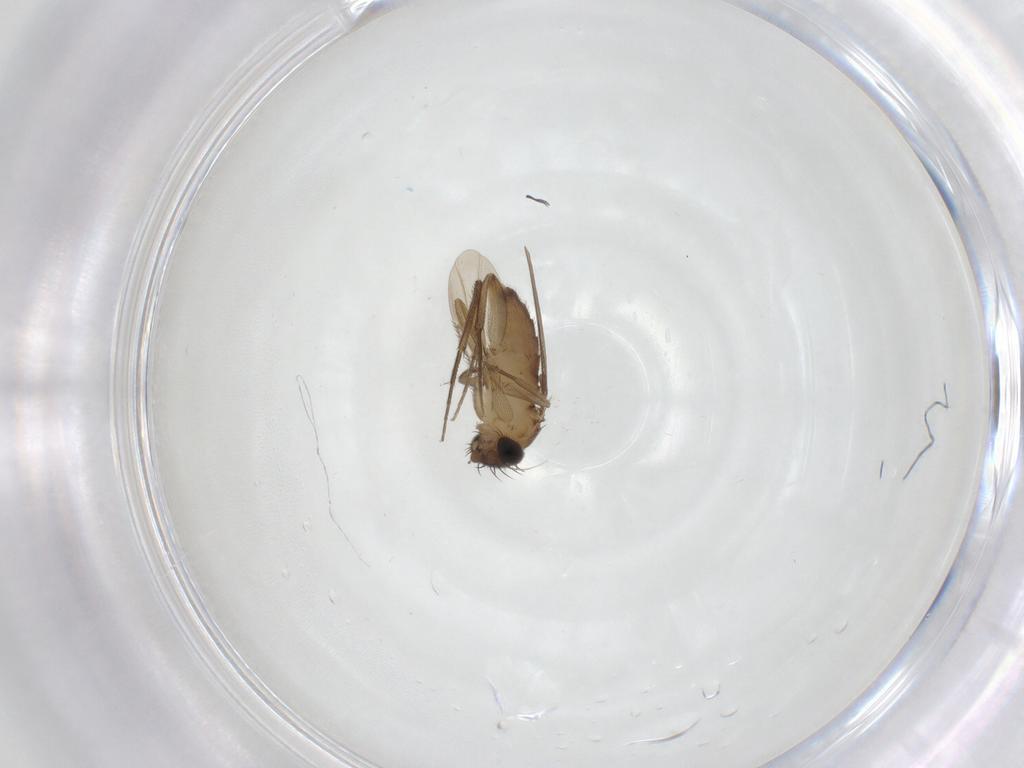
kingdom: Animalia
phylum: Arthropoda
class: Insecta
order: Diptera
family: Phoridae
